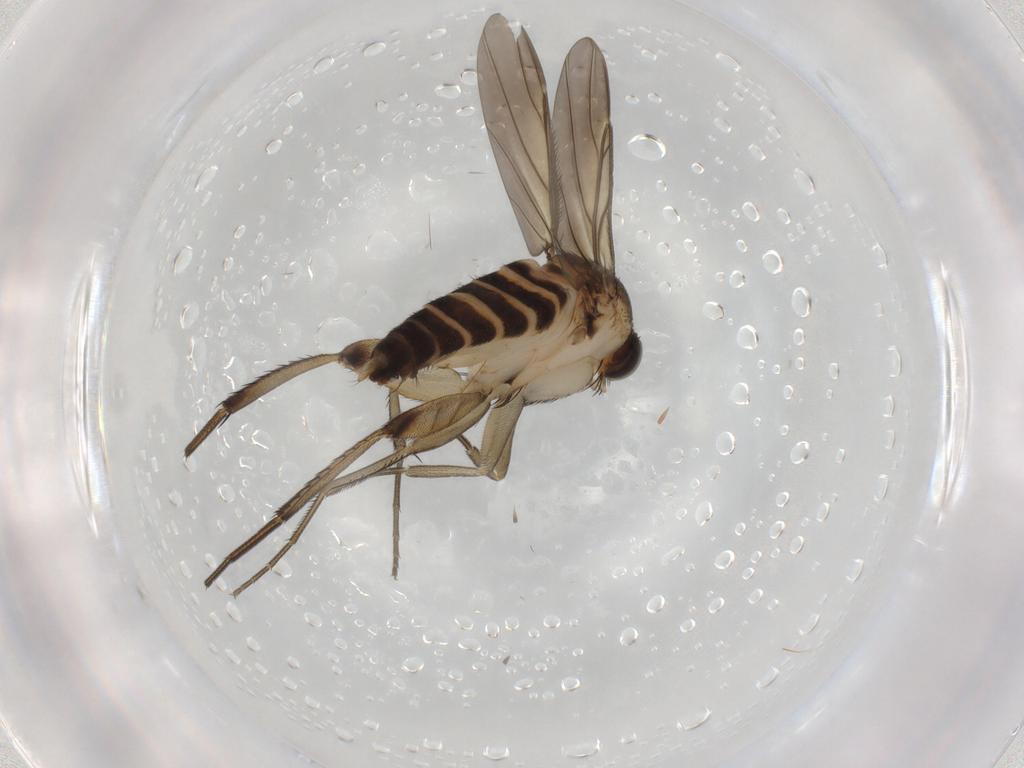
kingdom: Animalia
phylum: Arthropoda
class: Insecta
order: Diptera
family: Phoridae
